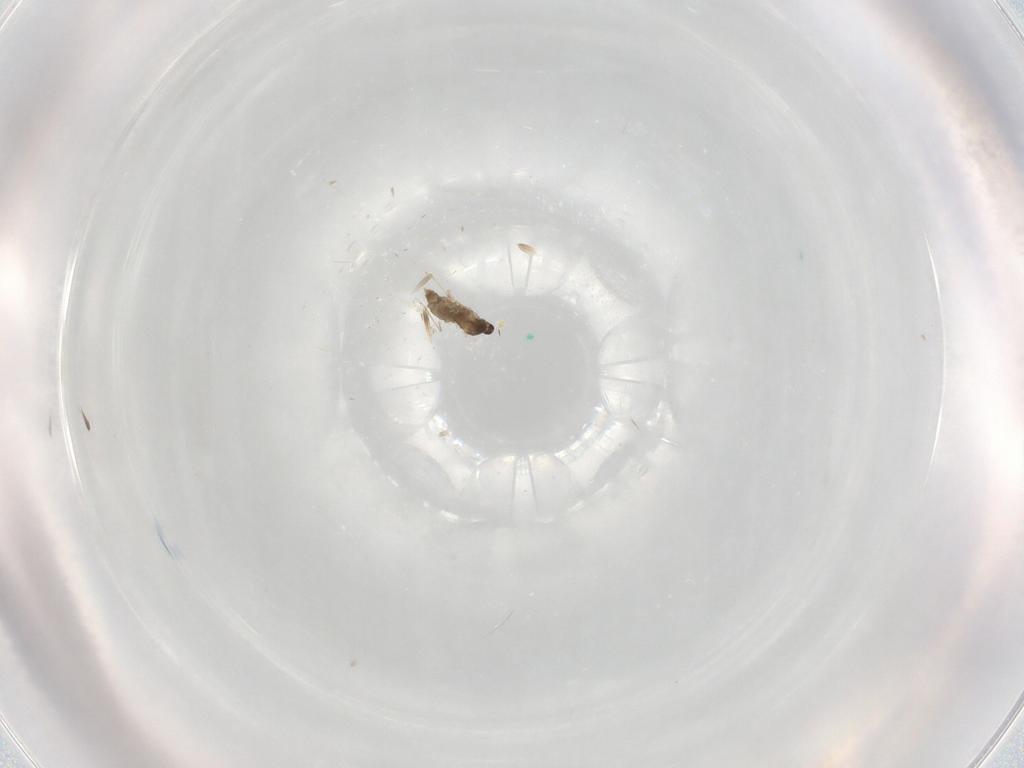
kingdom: Animalia
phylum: Arthropoda
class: Insecta
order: Diptera
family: Cecidomyiidae
